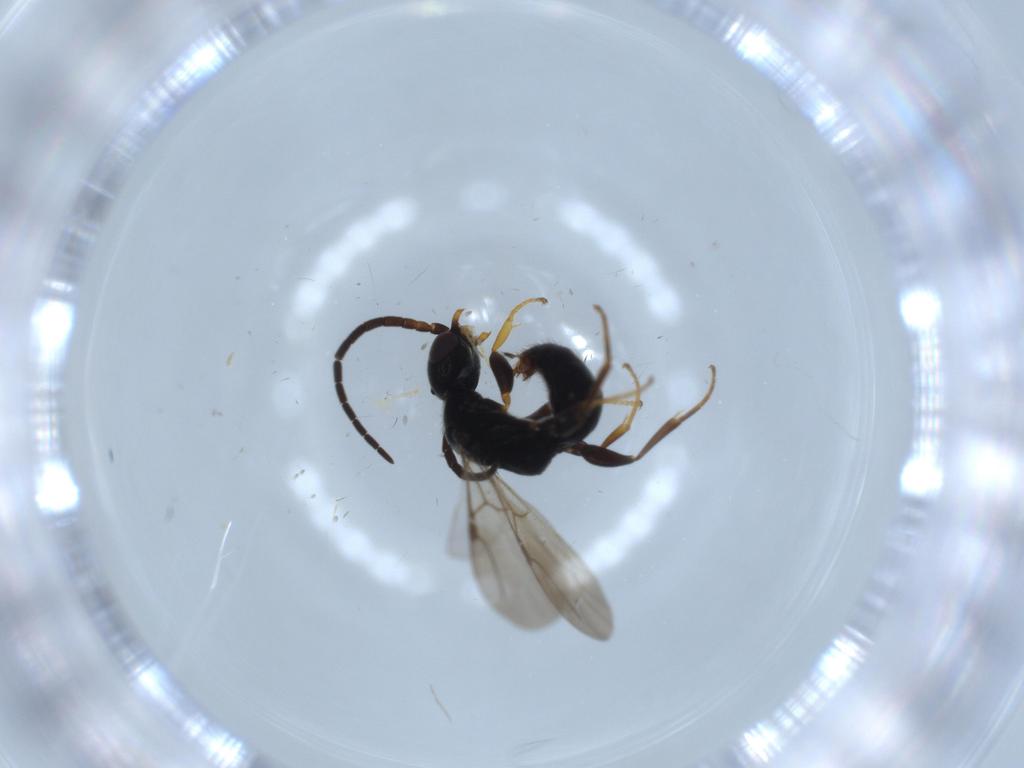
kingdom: Animalia
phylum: Arthropoda
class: Insecta
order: Hymenoptera
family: Bethylidae
